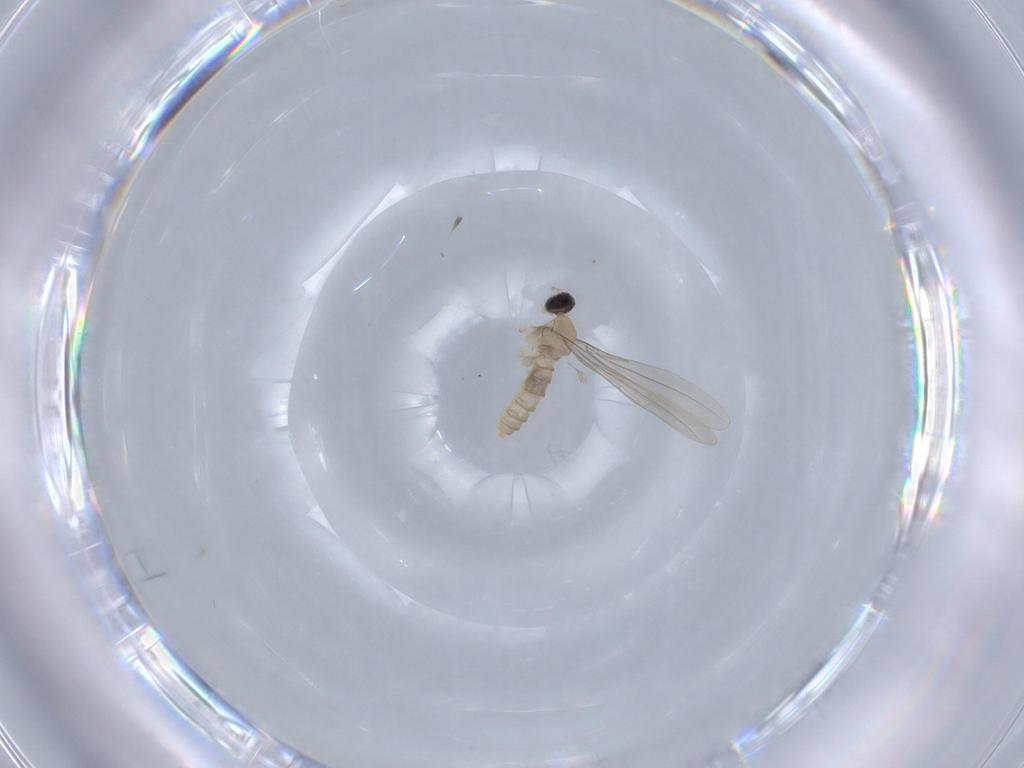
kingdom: Animalia
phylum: Arthropoda
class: Insecta
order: Diptera
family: Cecidomyiidae
